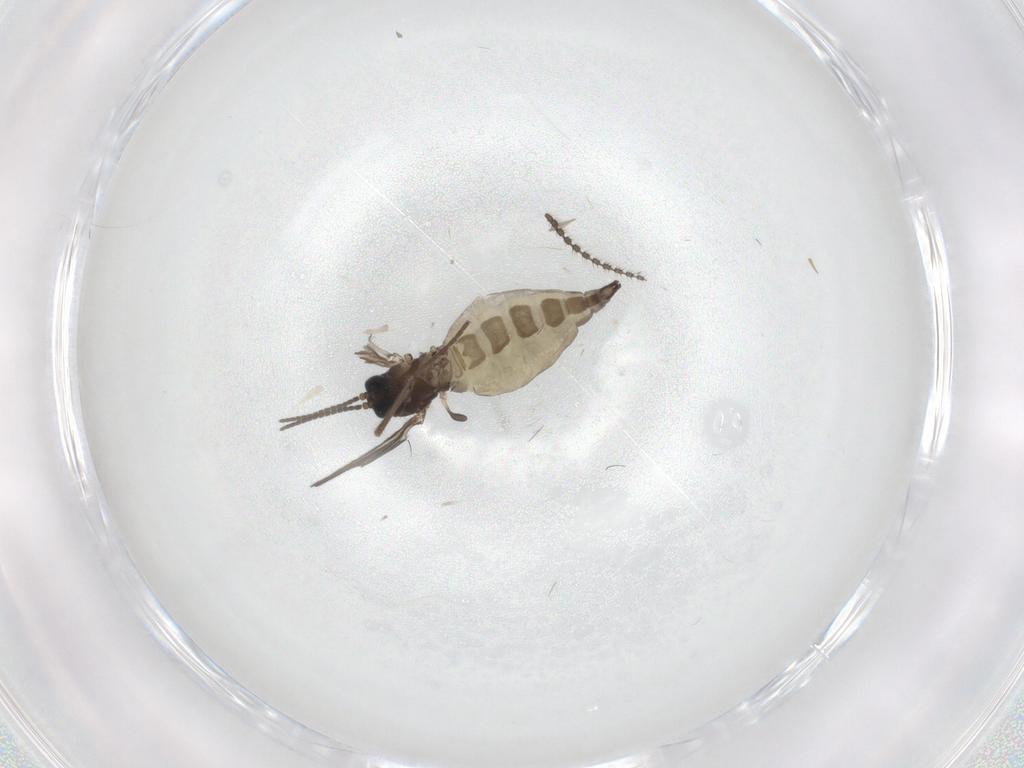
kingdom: Animalia
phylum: Arthropoda
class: Insecta
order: Diptera
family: Sciaridae
